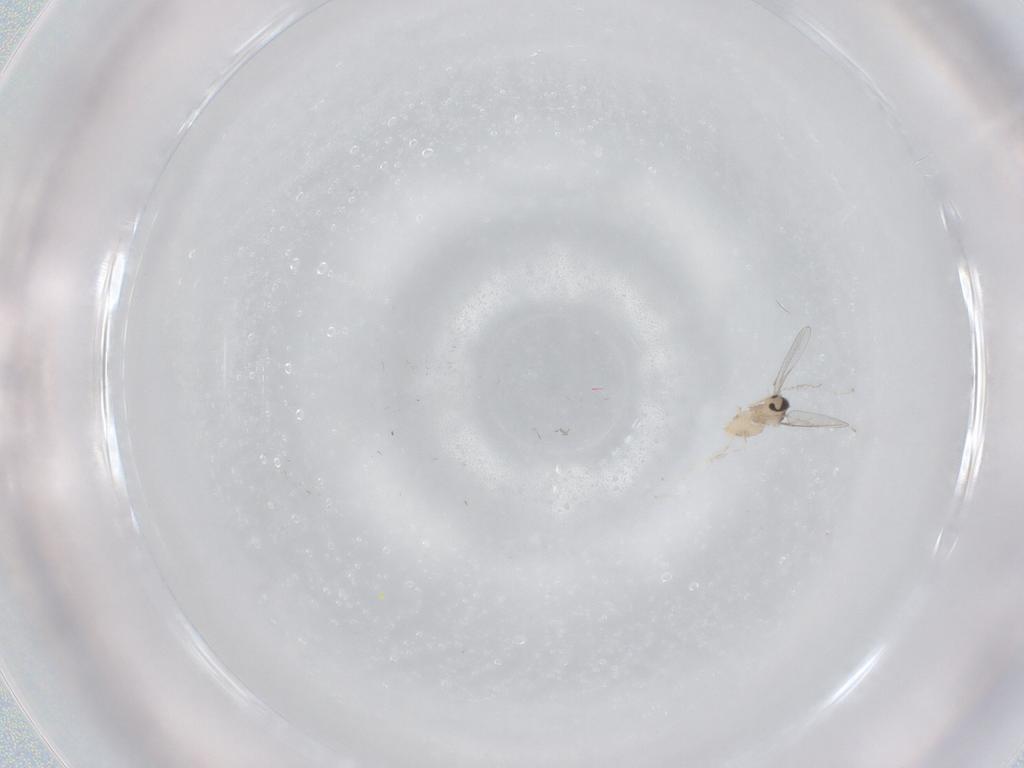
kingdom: Animalia
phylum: Arthropoda
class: Insecta
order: Diptera
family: Cecidomyiidae
